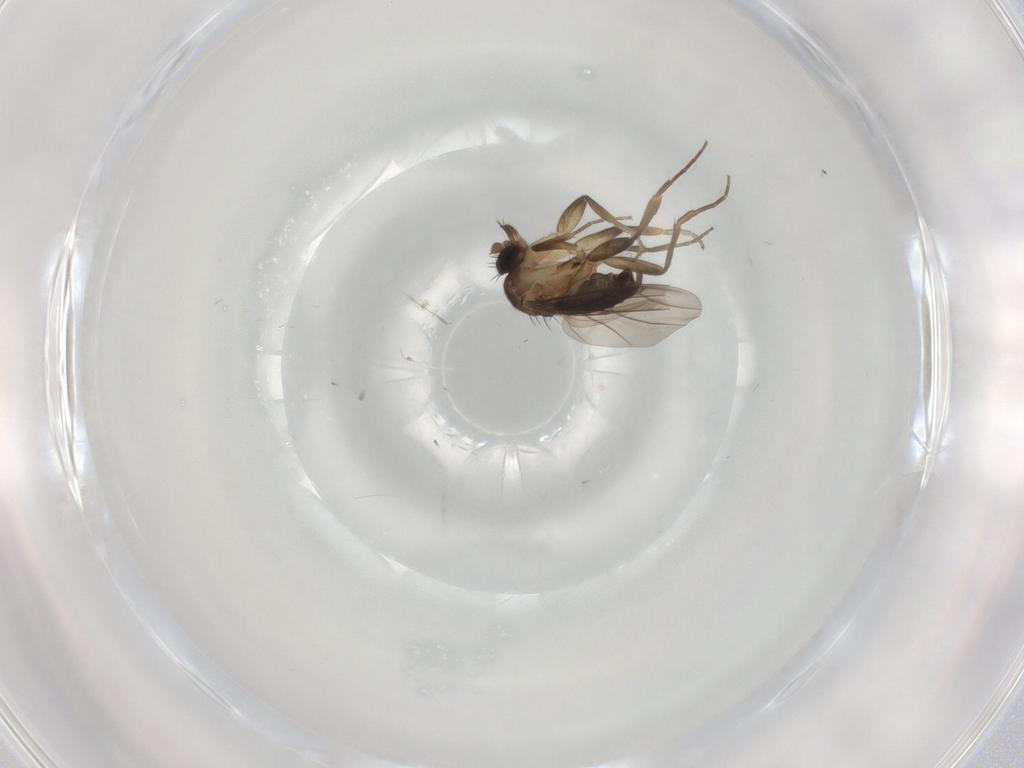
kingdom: Animalia
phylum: Arthropoda
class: Insecta
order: Diptera
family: Phoridae
